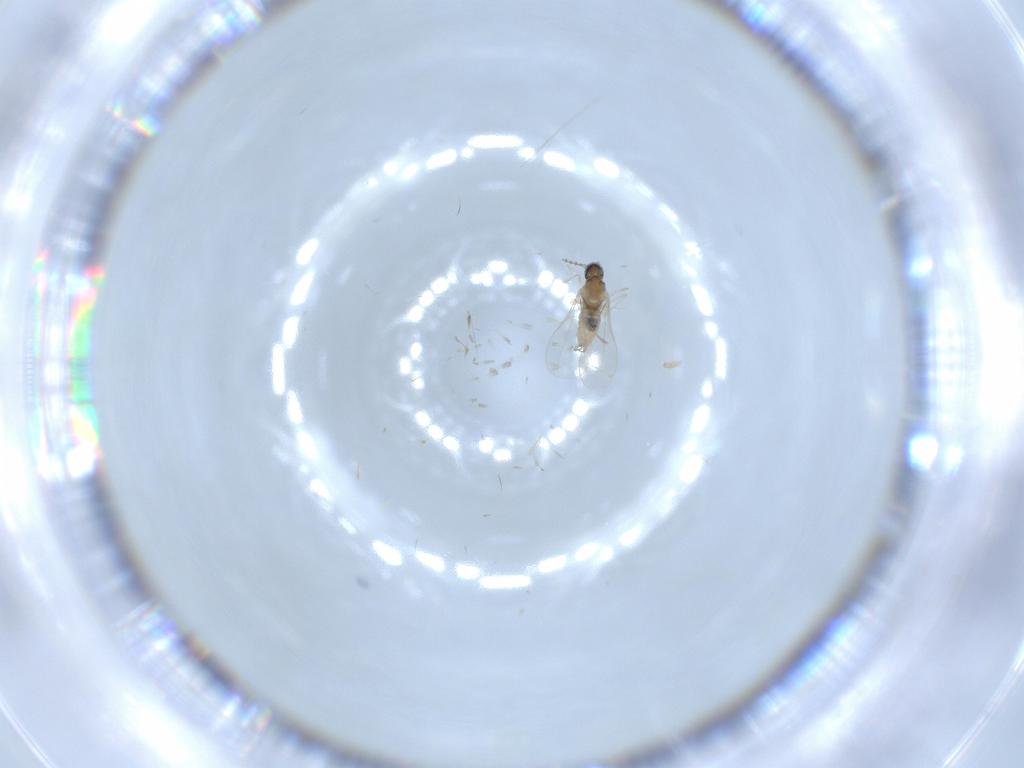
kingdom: Animalia
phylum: Arthropoda
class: Insecta
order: Diptera
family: Cecidomyiidae
